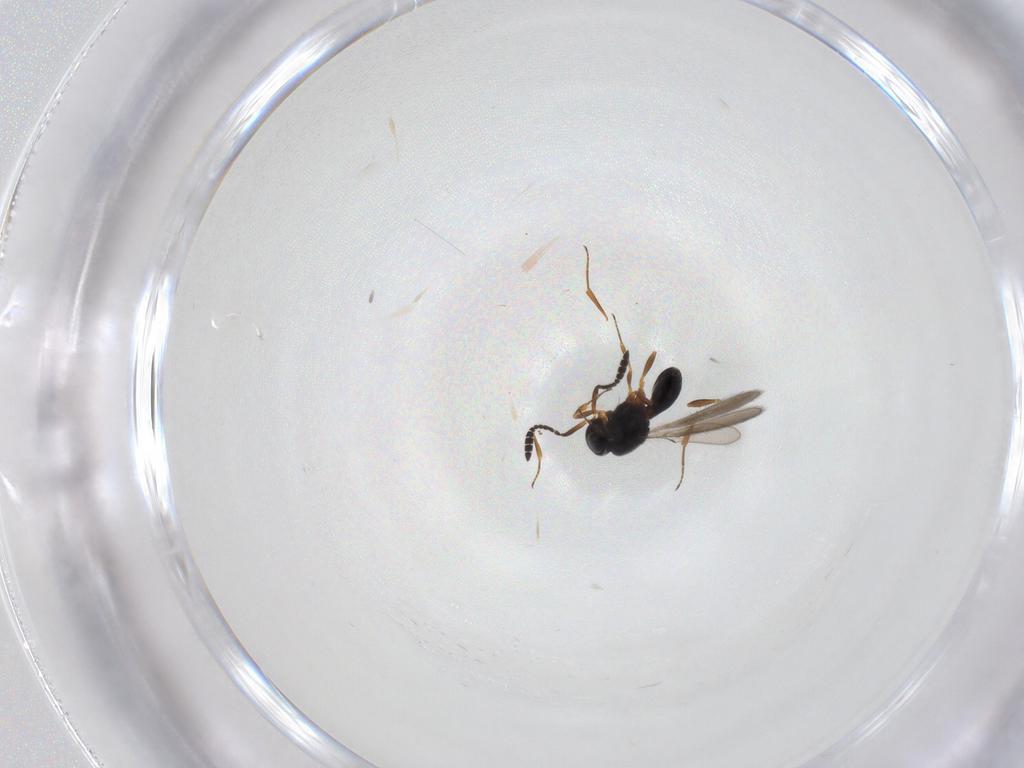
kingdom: Animalia
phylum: Arthropoda
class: Insecta
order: Hymenoptera
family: Scelionidae
